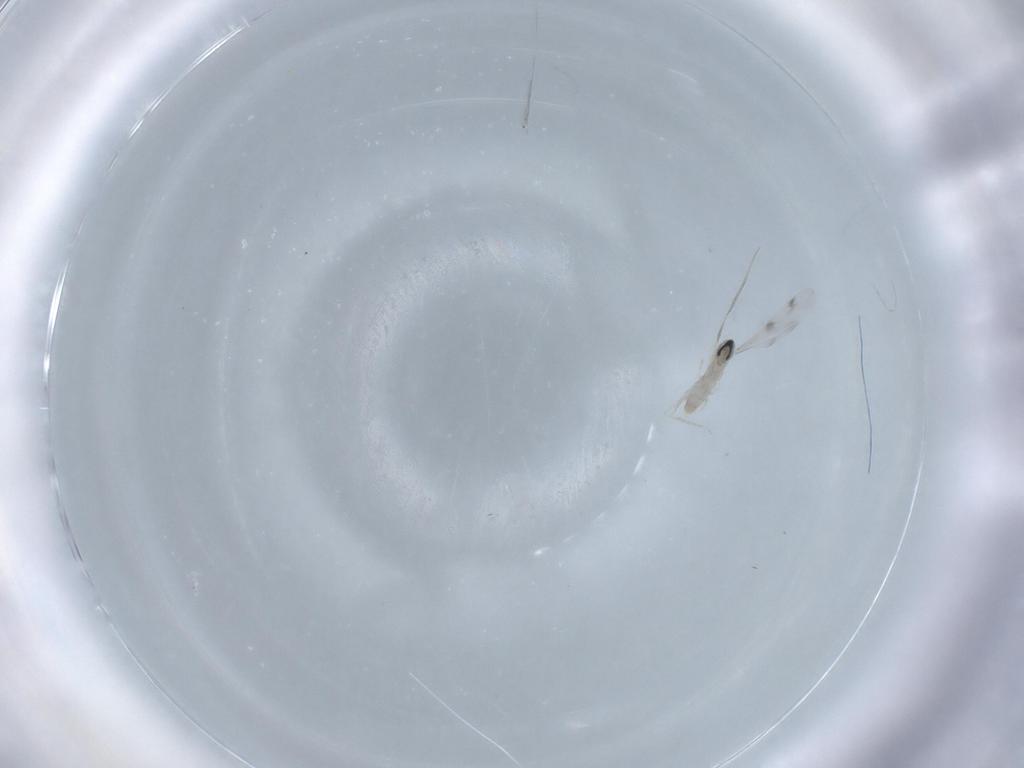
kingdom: Animalia
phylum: Arthropoda
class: Insecta
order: Diptera
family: Cecidomyiidae
